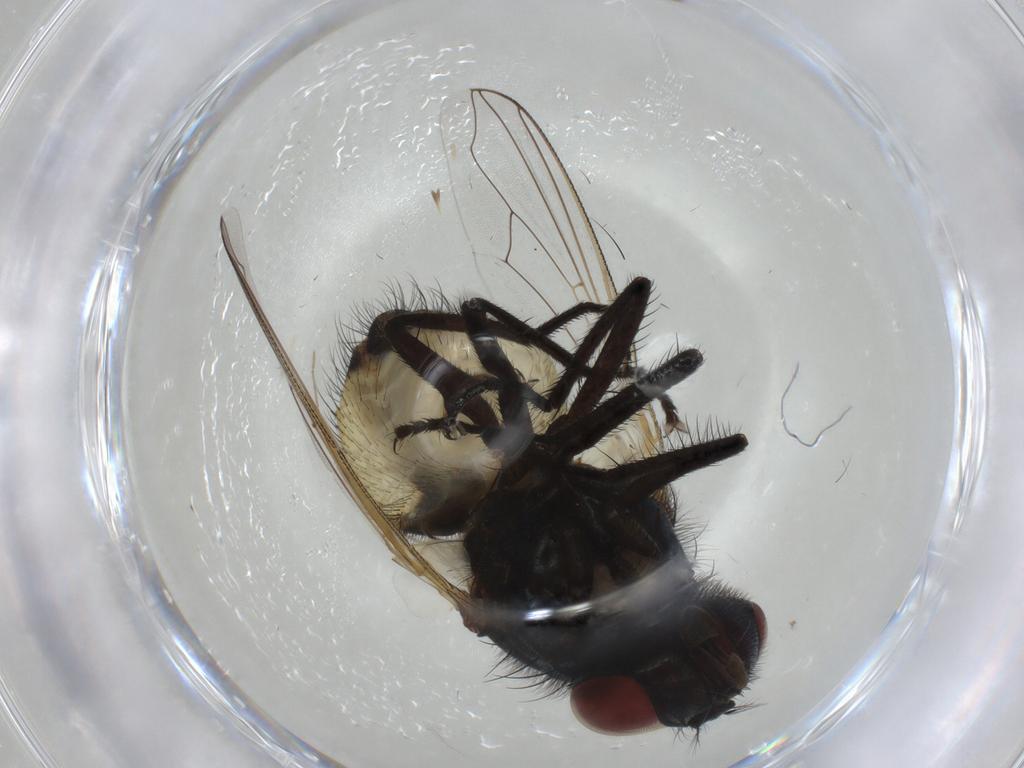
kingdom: Animalia
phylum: Arthropoda
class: Insecta
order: Diptera
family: Muscidae
